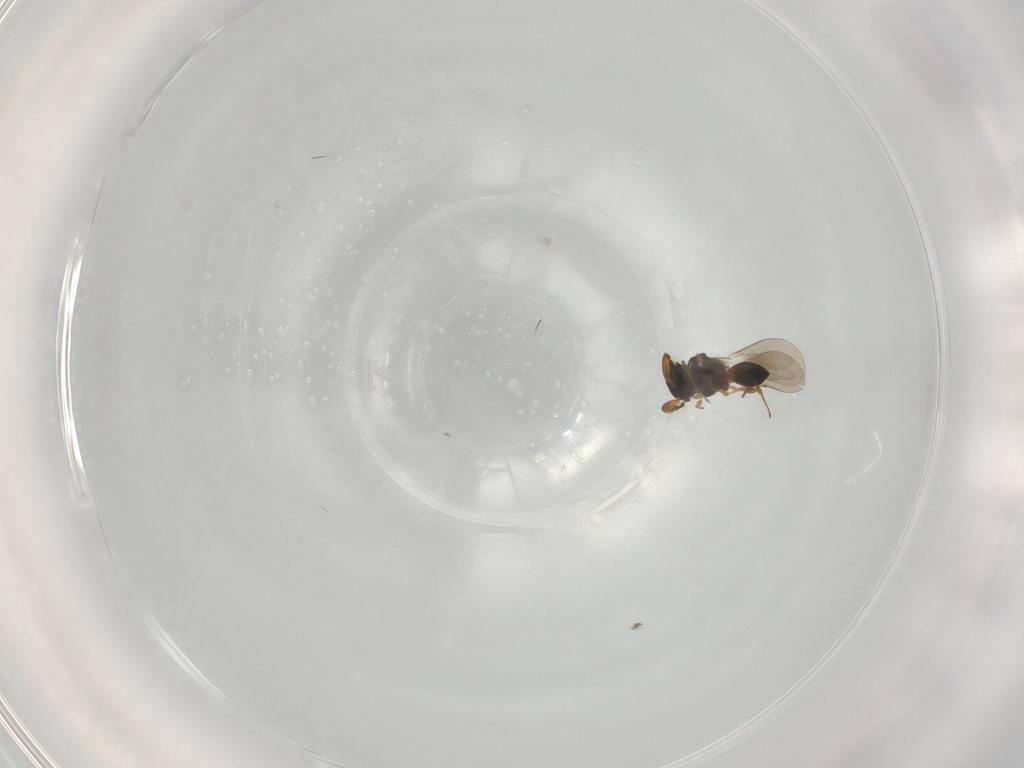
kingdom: Animalia
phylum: Arthropoda
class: Insecta
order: Hymenoptera
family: Platygastridae
